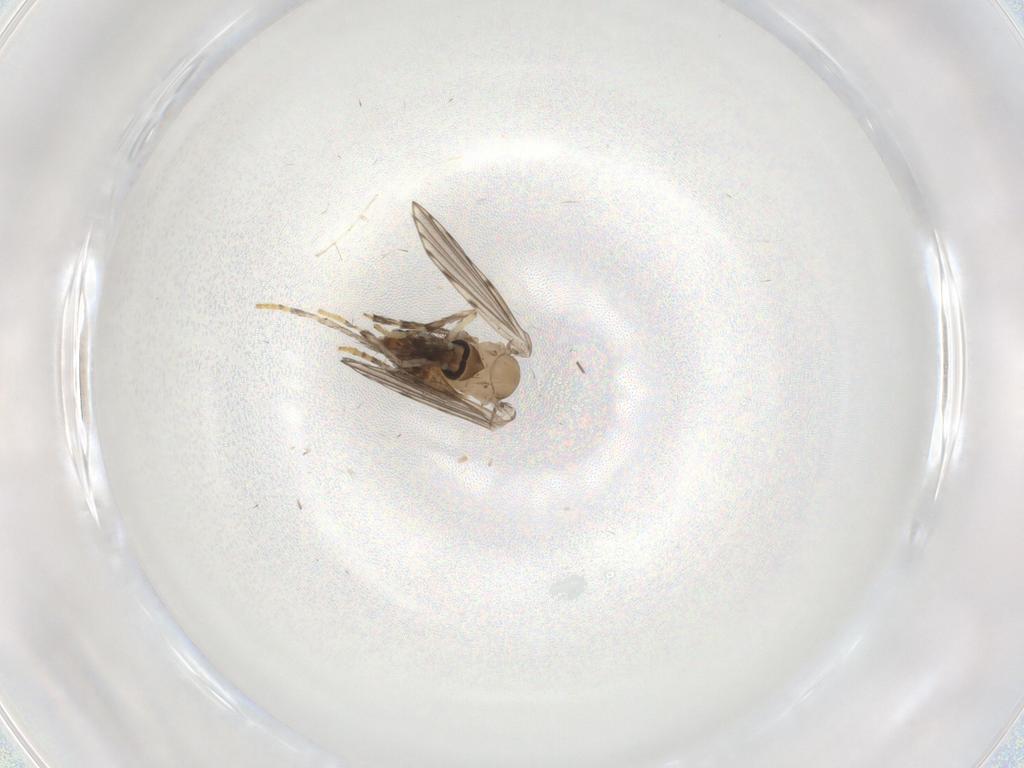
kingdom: Animalia
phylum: Arthropoda
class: Insecta
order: Diptera
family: Psychodidae
